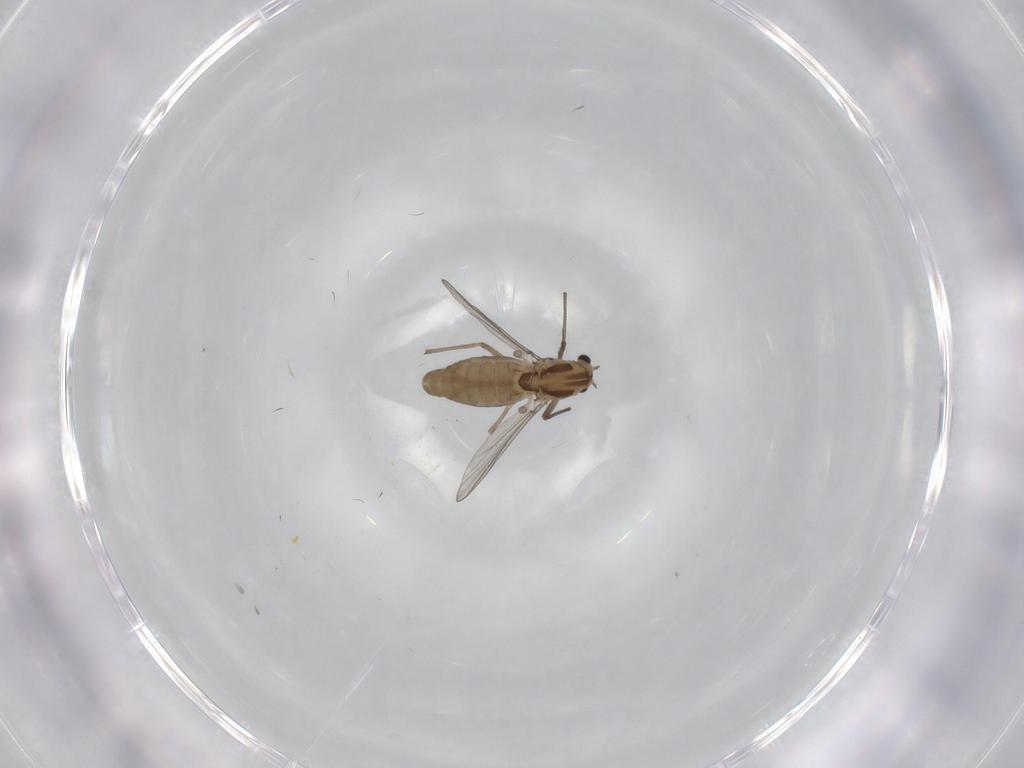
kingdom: Animalia
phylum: Arthropoda
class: Insecta
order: Diptera
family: Chironomidae
